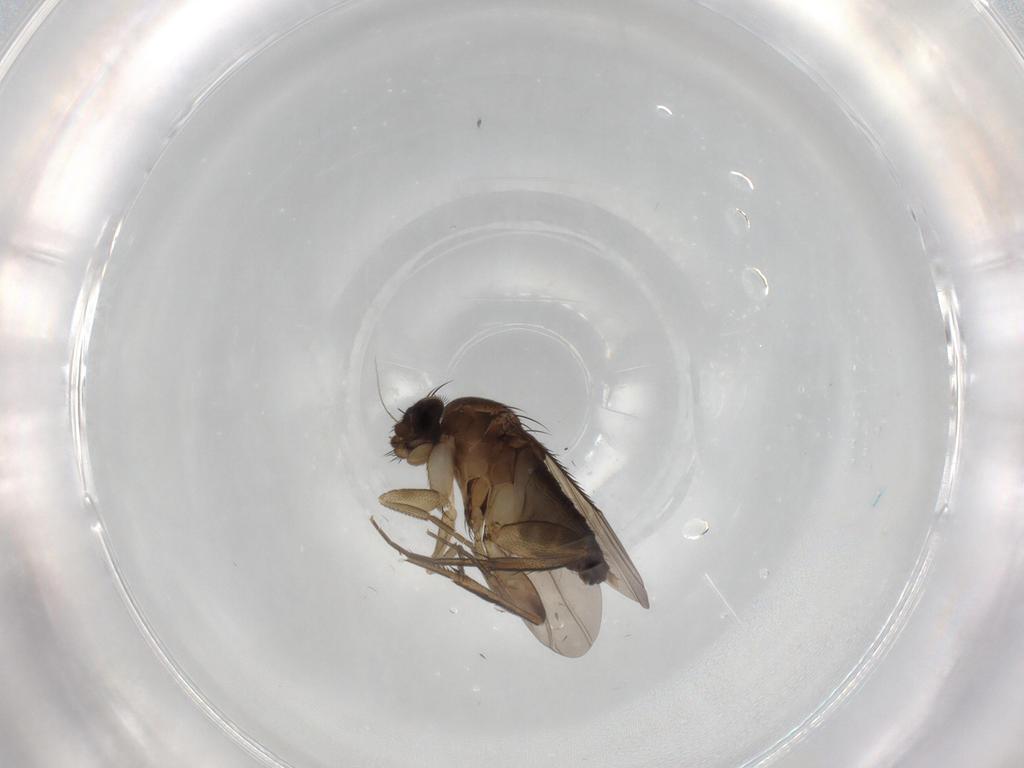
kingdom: Animalia
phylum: Arthropoda
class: Insecta
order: Diptera
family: Phoridae
